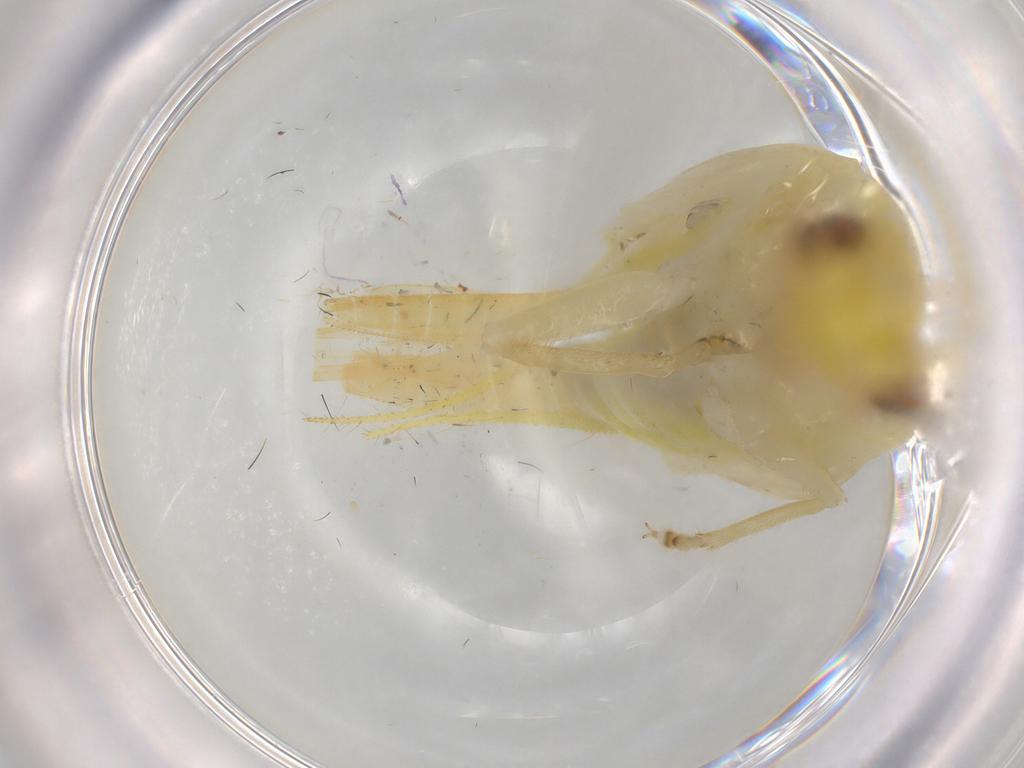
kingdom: Animalia
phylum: Arthropoda
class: Insecta
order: Orthoptera
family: Trigonidiidae
